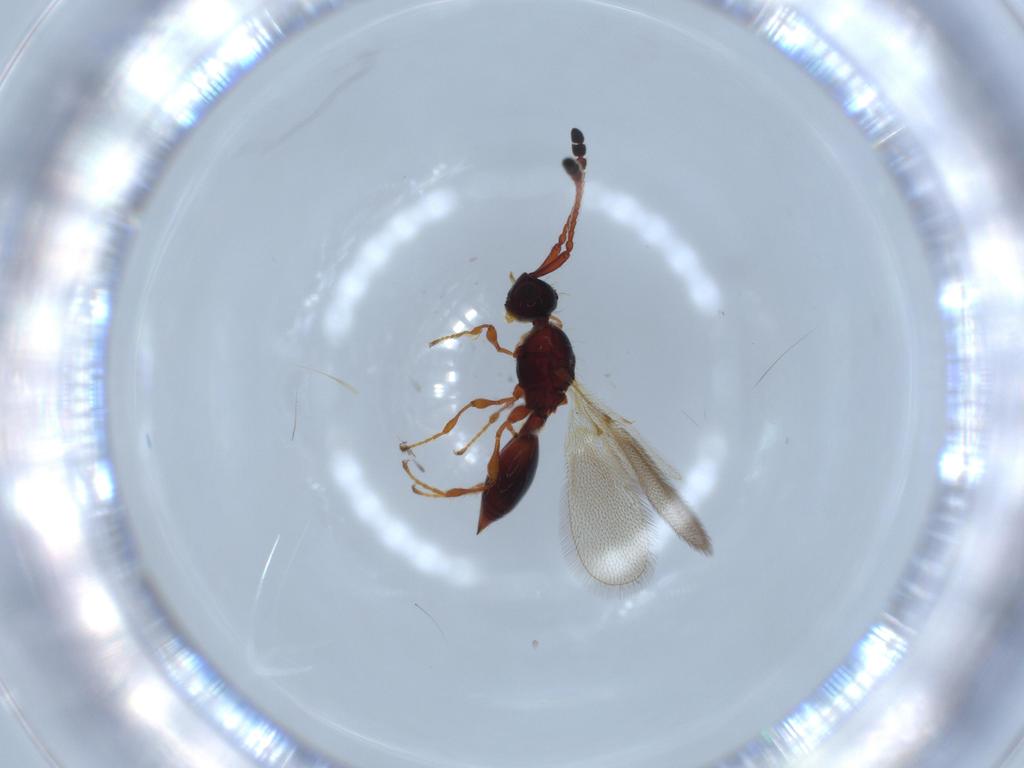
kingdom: Animalia
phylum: Arthropoda
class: Insecta
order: Hymenoptera
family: Diapriidae
